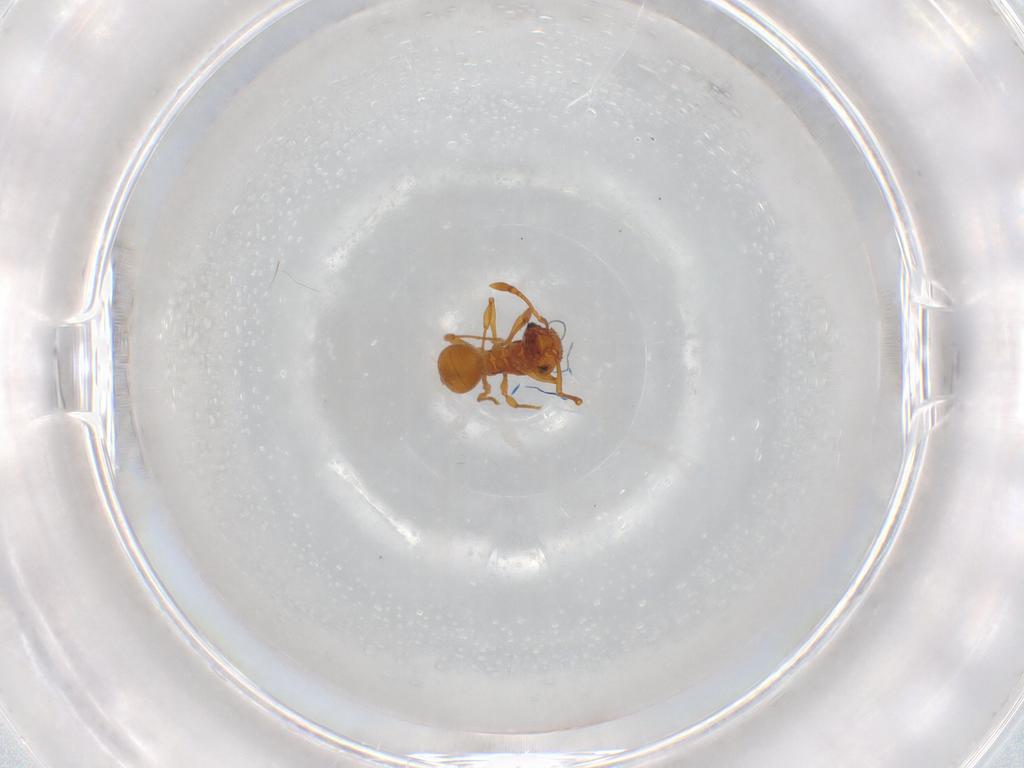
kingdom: Animalia
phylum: Arthropoda
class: Insecta
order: Hymenoptera
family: Formicidae
